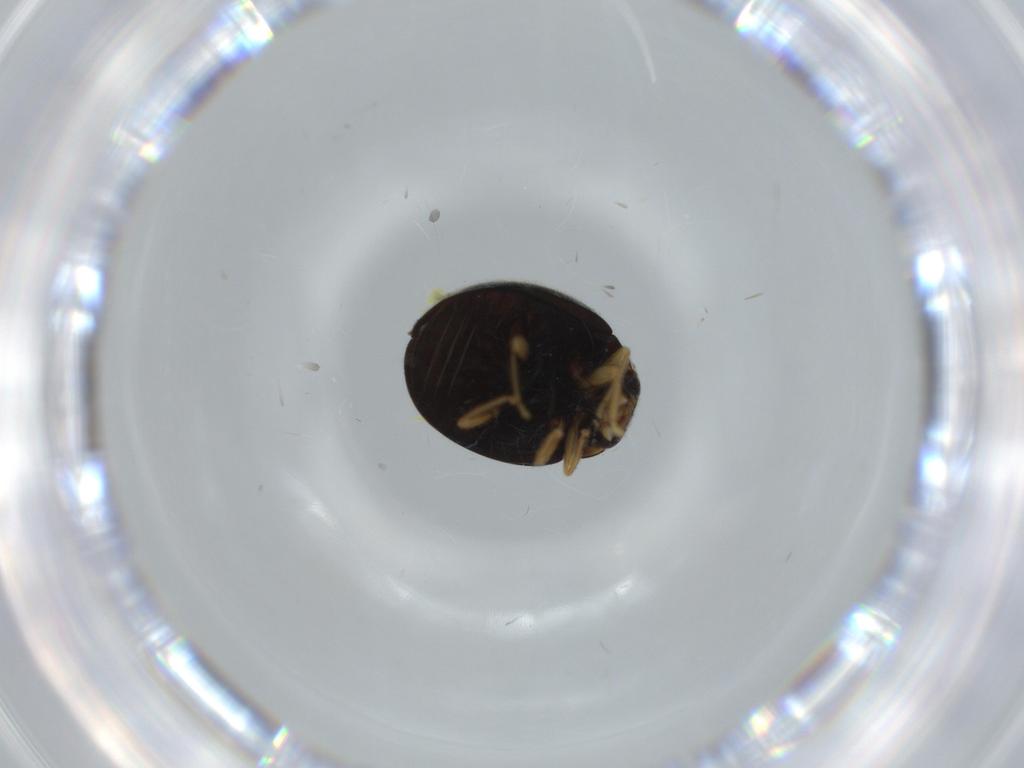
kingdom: Animalia
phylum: Arthropoda
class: Insecta
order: Coleoptera
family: Coccinellidae
